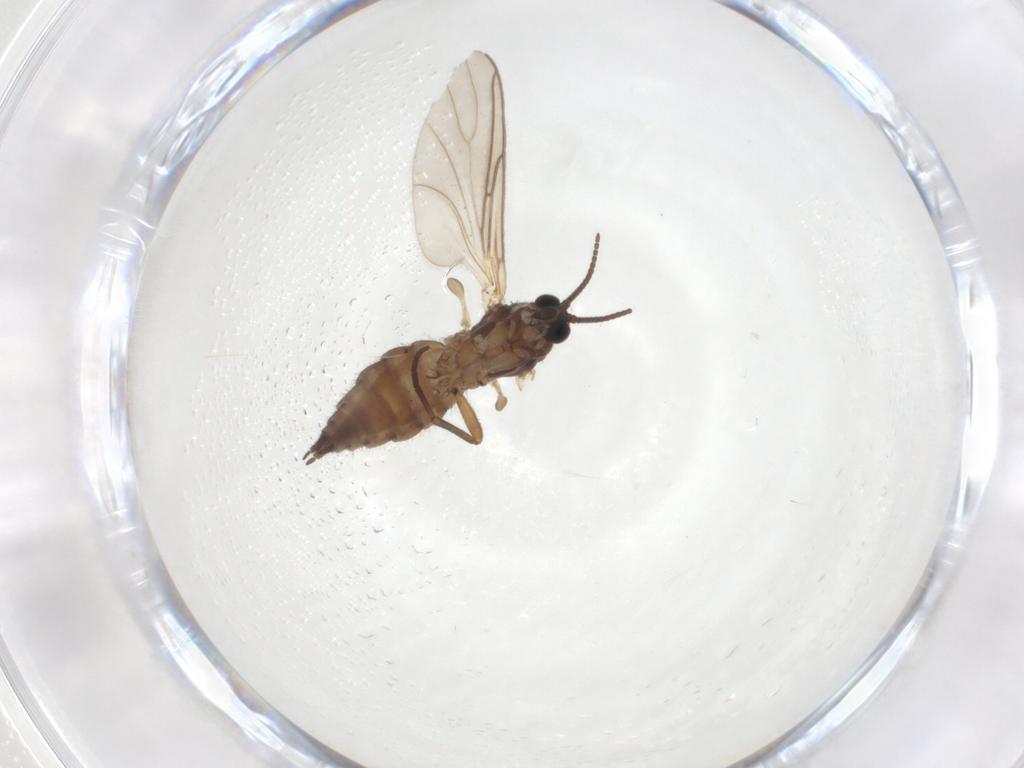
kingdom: Animalia
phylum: Arthropoda
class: Insecta
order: Diptera
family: Sciaridae
